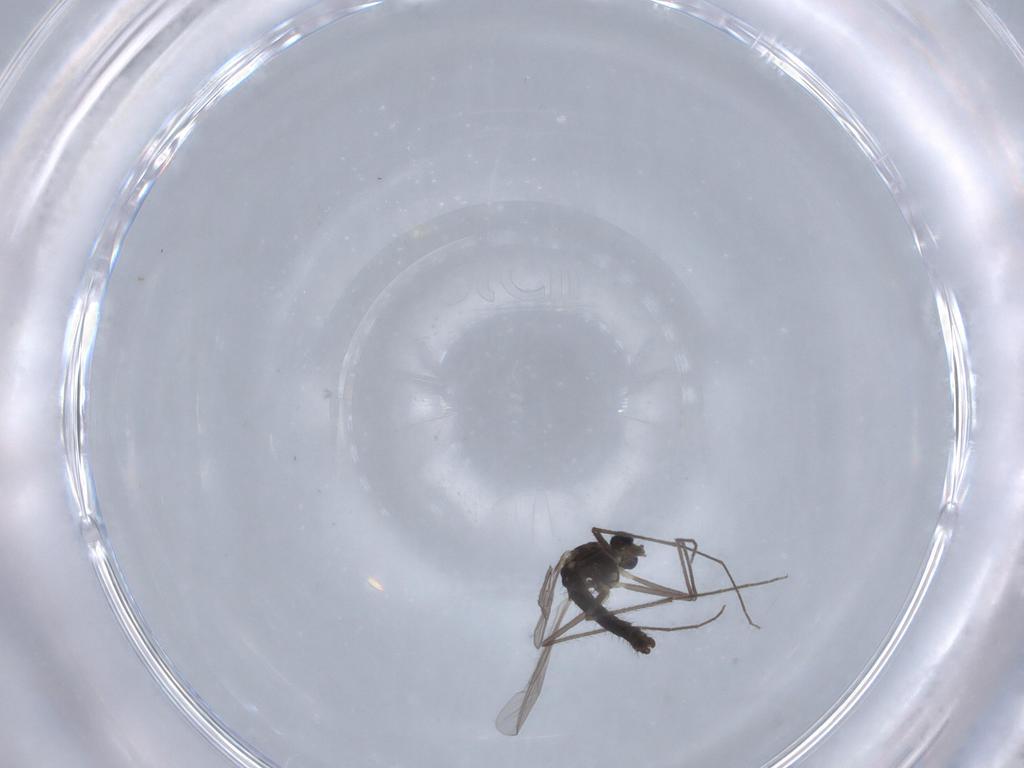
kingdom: Animalia
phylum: Arthropoda
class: Insecta
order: Diptera
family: Chironomidae
